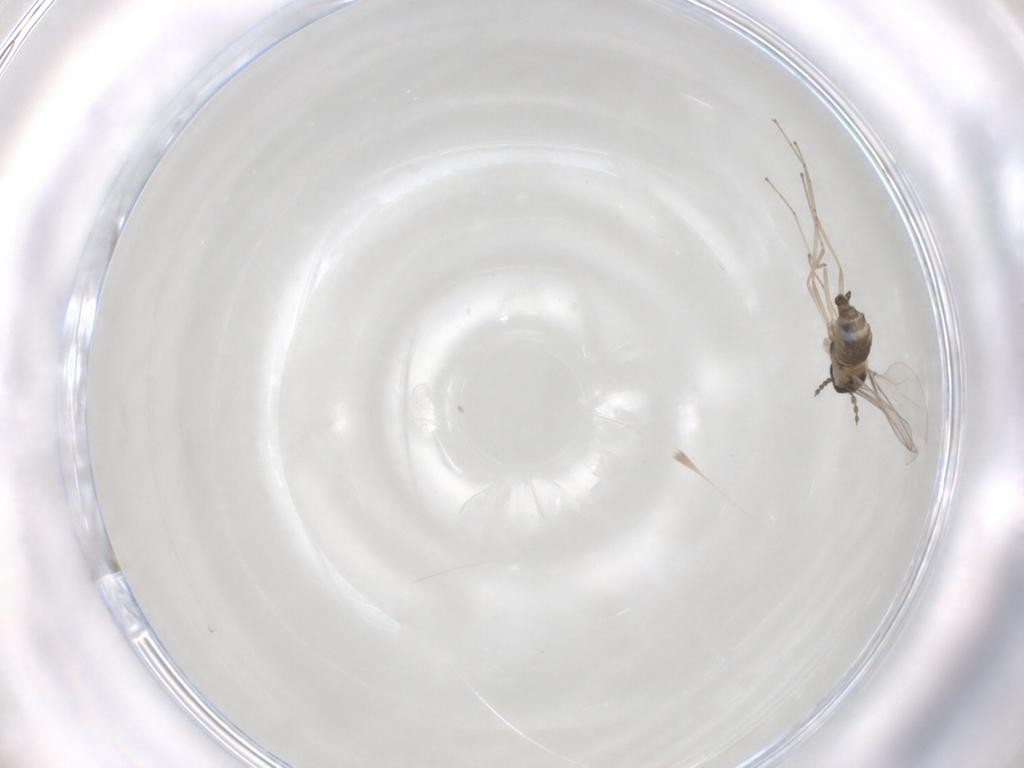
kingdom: Animalia
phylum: Arthropoda
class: Insecta
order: Diptera
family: Cecidomyiidae
